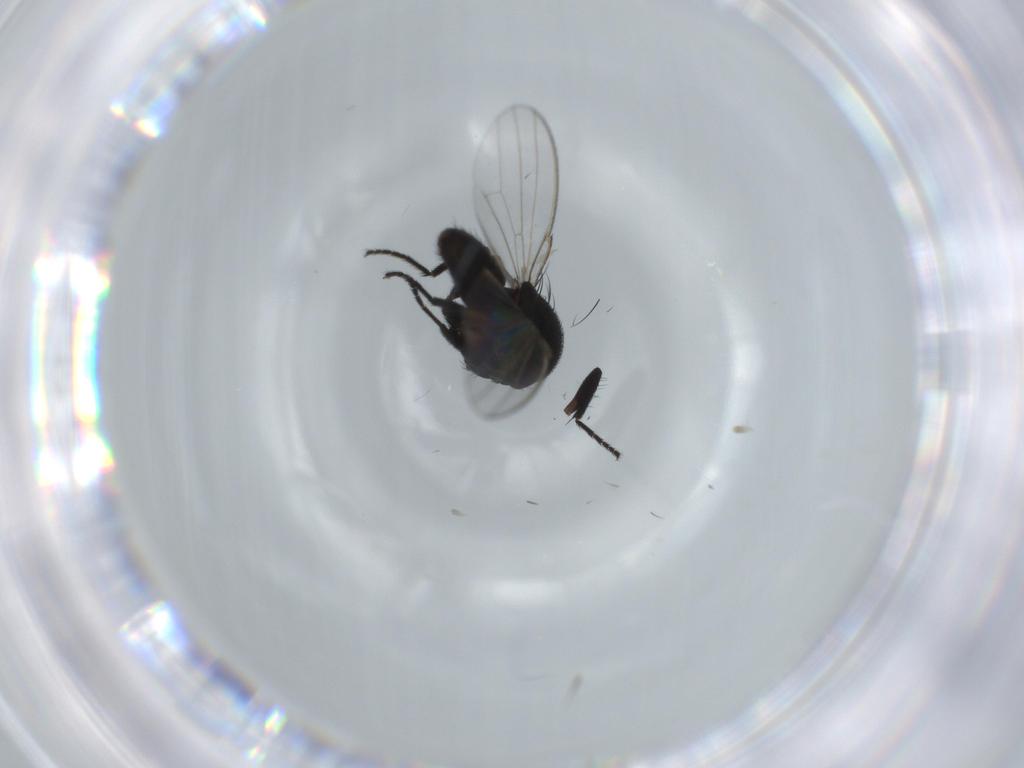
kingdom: Animalia
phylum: Arthropoda
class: Insecta
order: Diptera
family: Milichiidae
